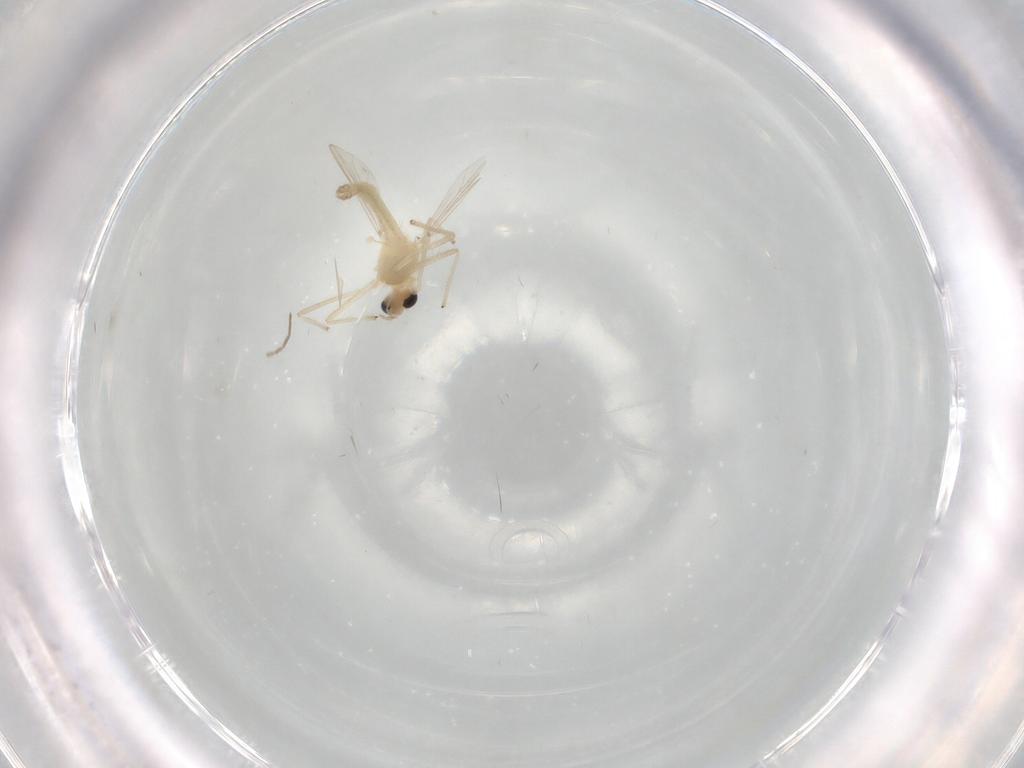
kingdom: Animalia
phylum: Arthropoda
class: Insecta
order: Diptera
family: Chironomidae
